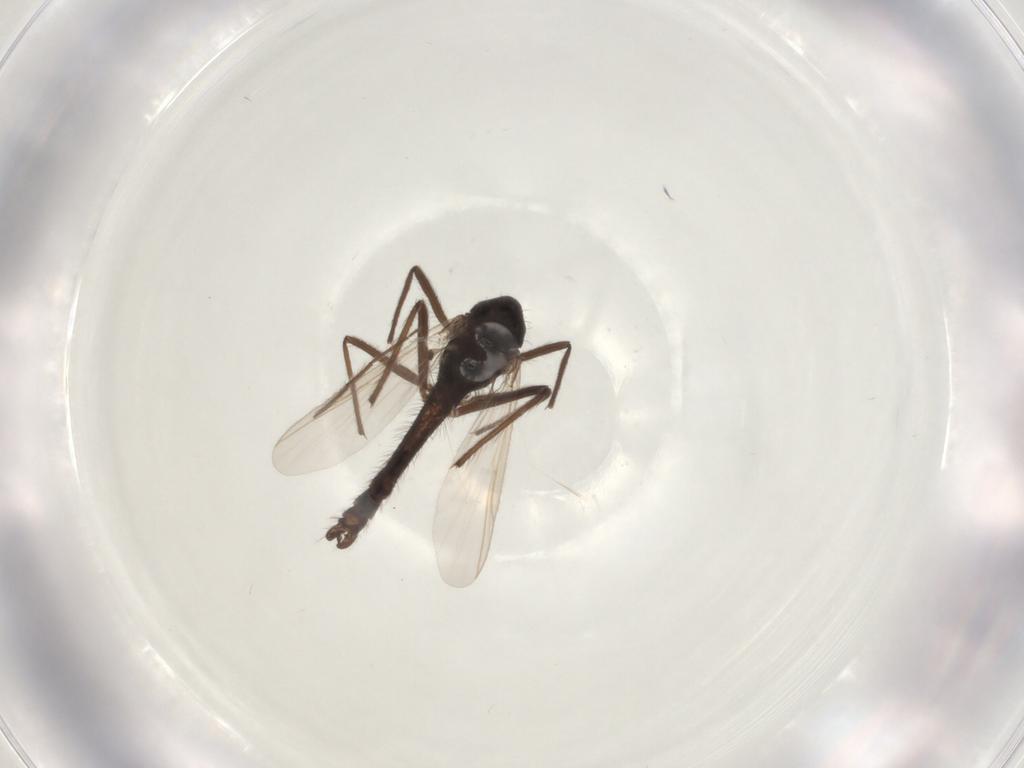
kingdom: Animalia
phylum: Arthropoda
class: Insecta
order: Diptera
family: Chironomidae
